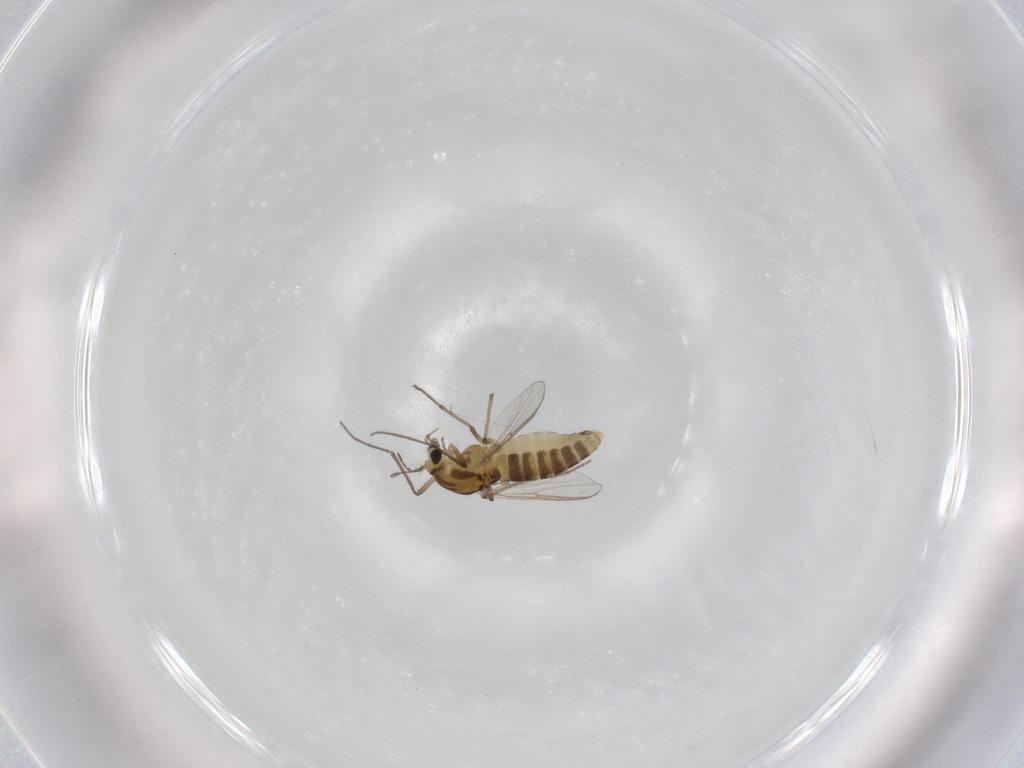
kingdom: Animalia
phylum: Arthropoda
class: Insecta
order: Diptera
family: Chironomidae
